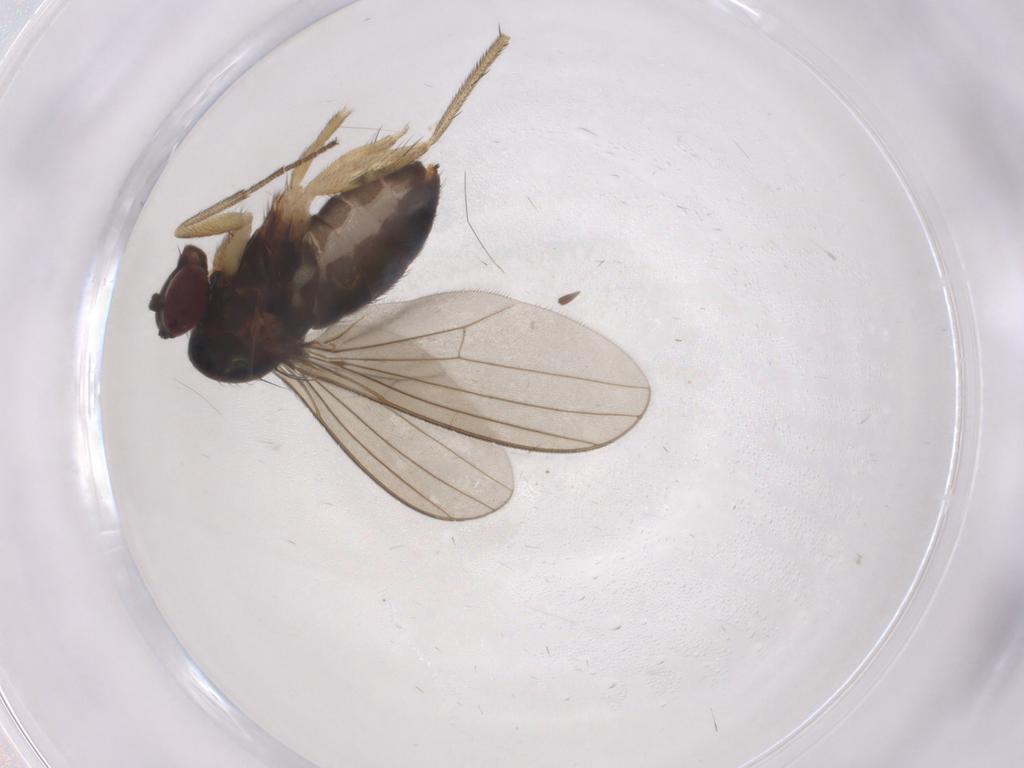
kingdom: Animalia
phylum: Arthropoda
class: Insecta
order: Diptera
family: Dolichopodidae
